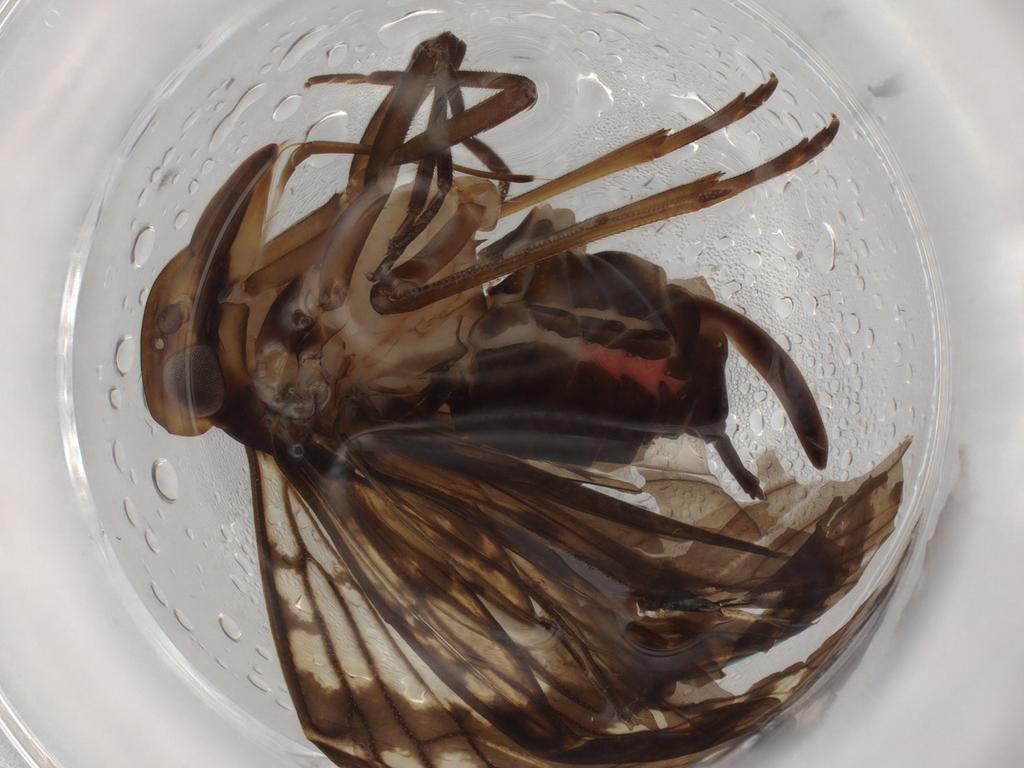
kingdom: Animalia
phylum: Arthropoda
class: Insecta
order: Hemiptera
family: Cixiidae
